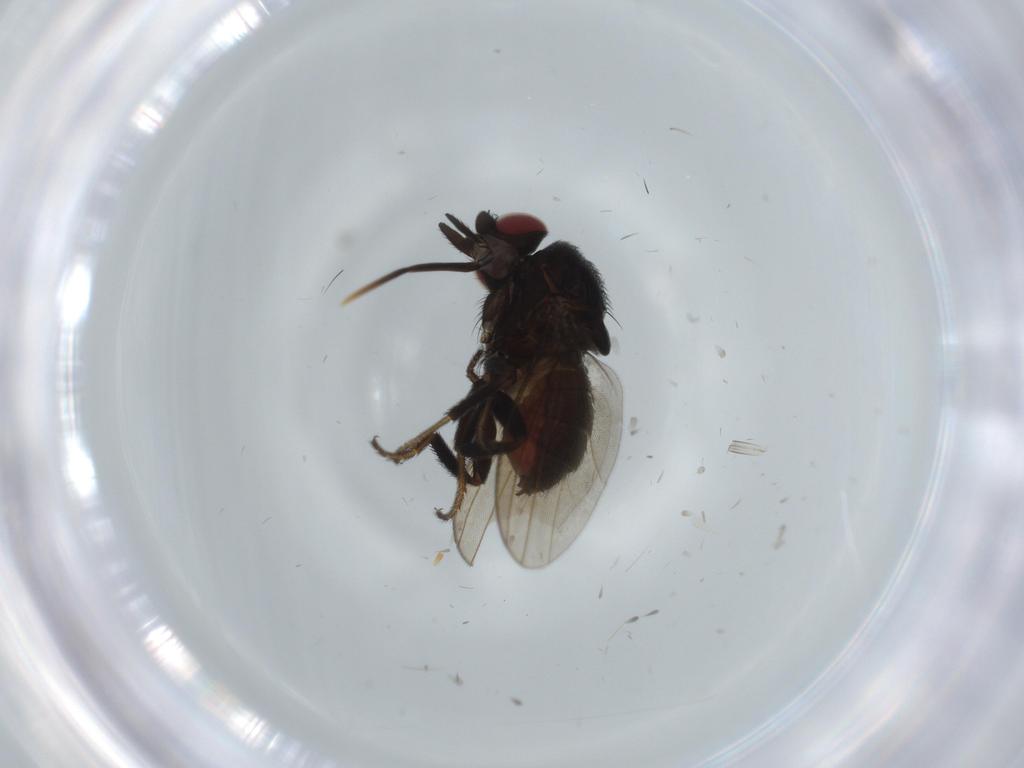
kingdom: Animalia
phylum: Arthropoda
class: Insecta
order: Diptera
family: Milichiidae
